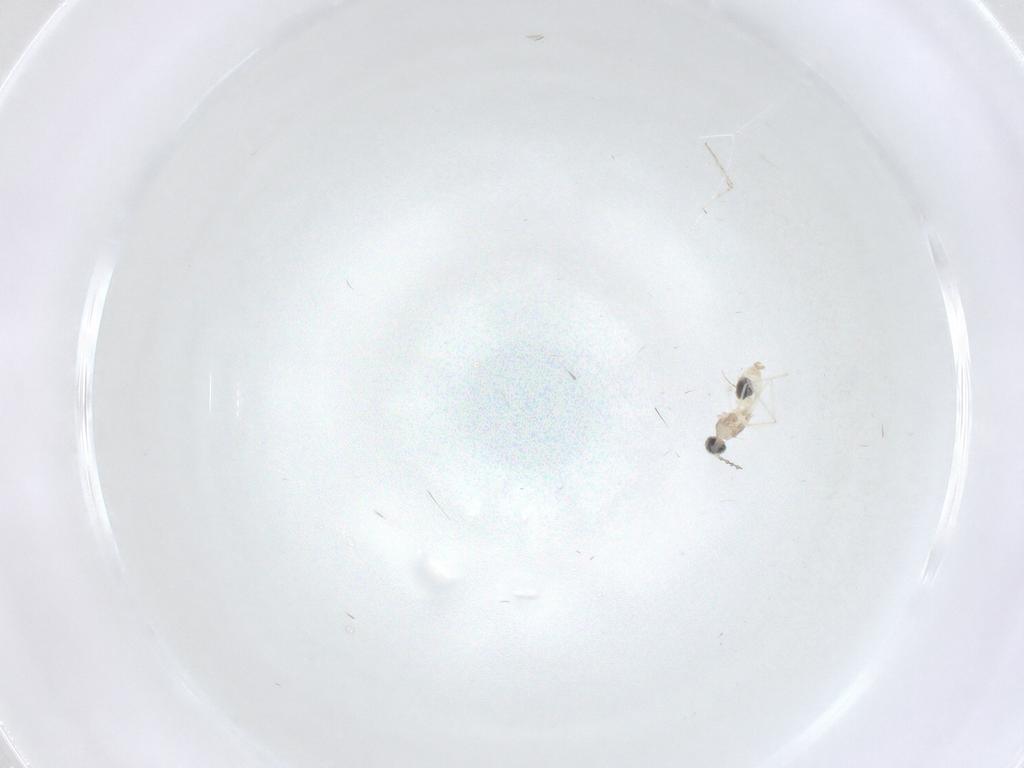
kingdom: Animalia
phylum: Arthropoda
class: Insecta
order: Diptera
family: Cecidomyiidae
